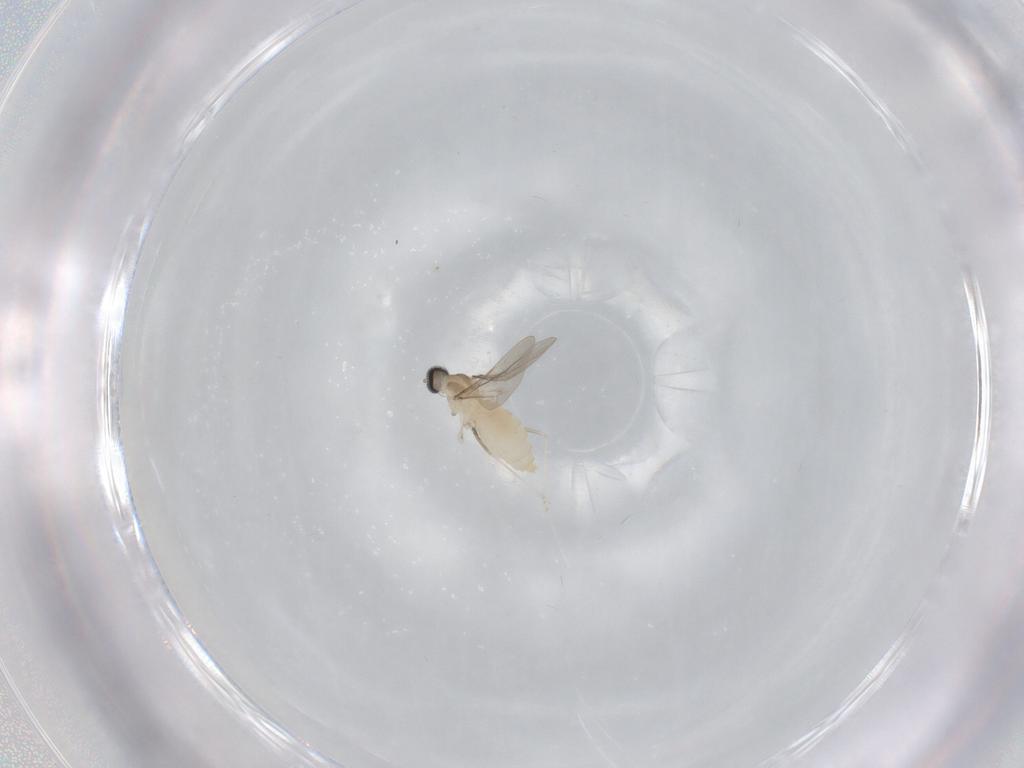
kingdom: Animalia
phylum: Arthropoda
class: Insecta
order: Diptera
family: Cecidomyiidae
